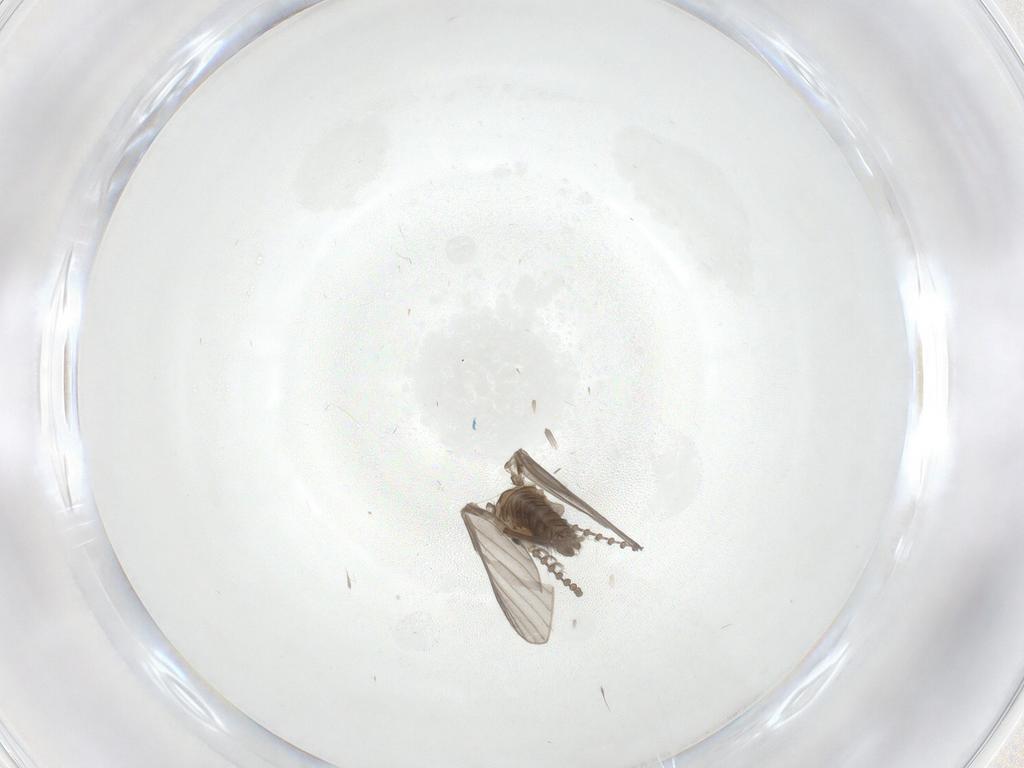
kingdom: Animalia
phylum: Arthropoda
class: Insecta
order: Diptera
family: Psychodidae
